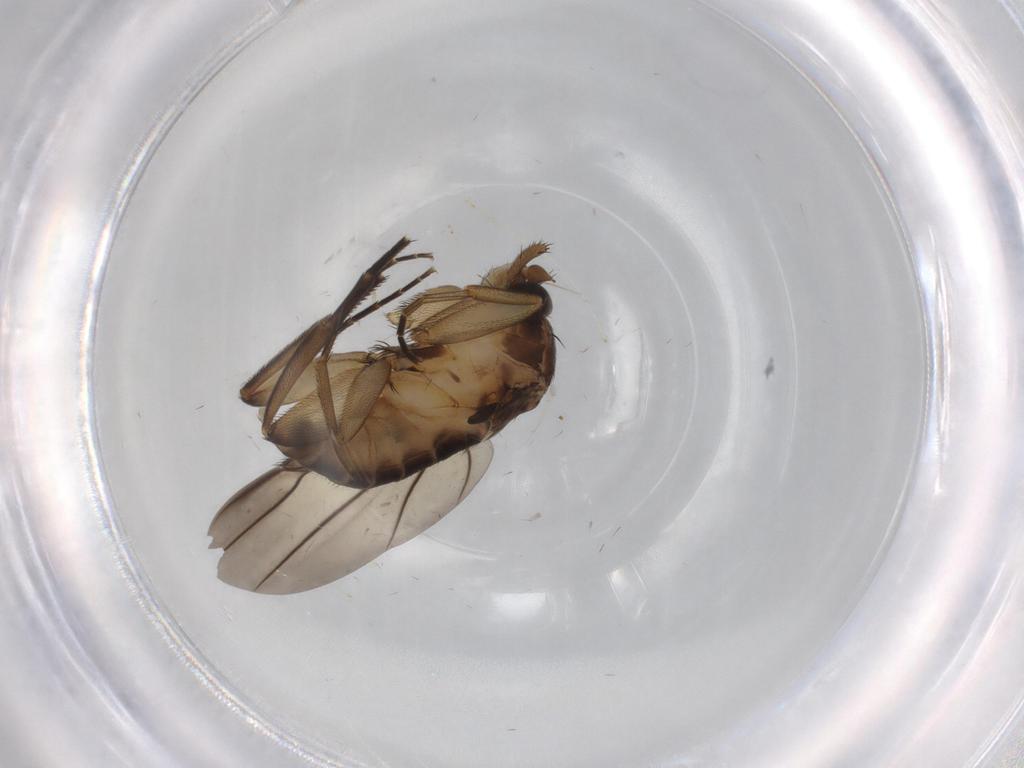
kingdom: Animalia
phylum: Arthropoda
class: Insecta
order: Diptera
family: Phoridae
